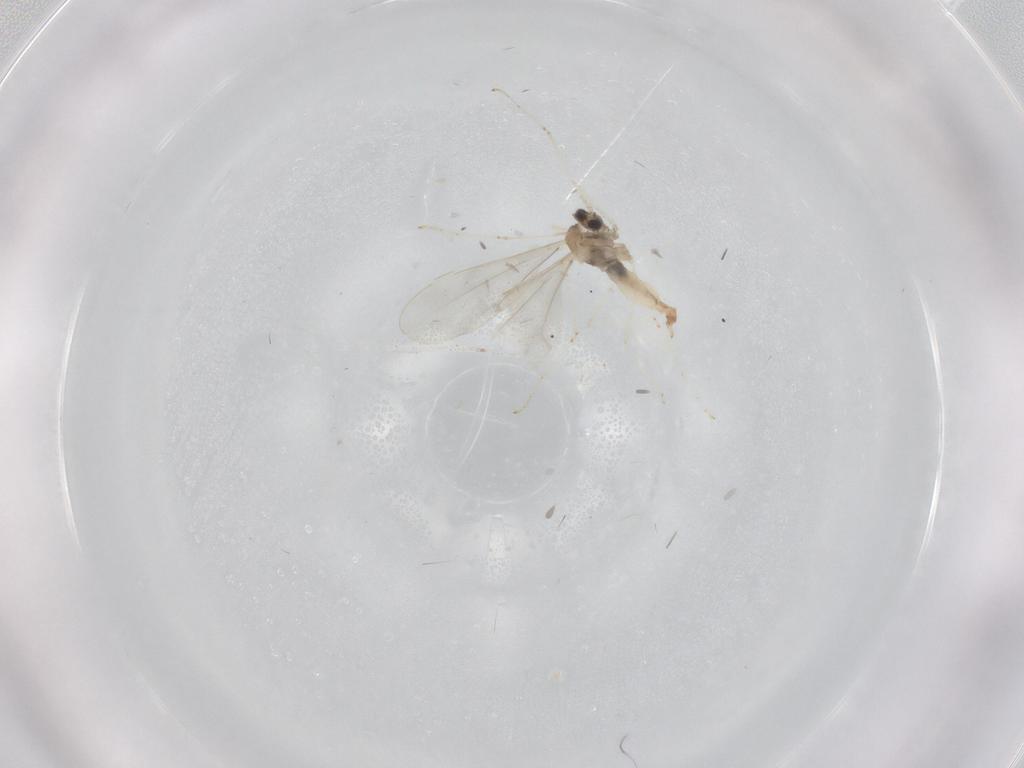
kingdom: Animalia
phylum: Arthropoda
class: Insecta
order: Diptera
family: Cecidomyiidae
